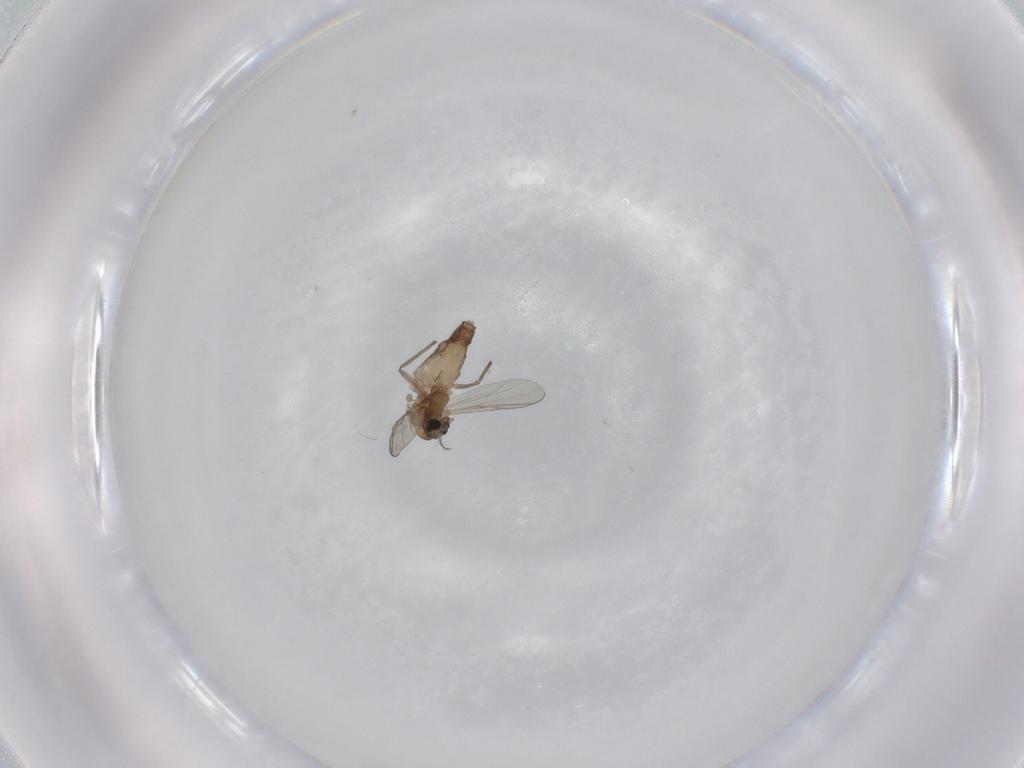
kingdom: Animalia
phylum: Arthropoda
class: Insecta
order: Diptera
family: Chironomidae
